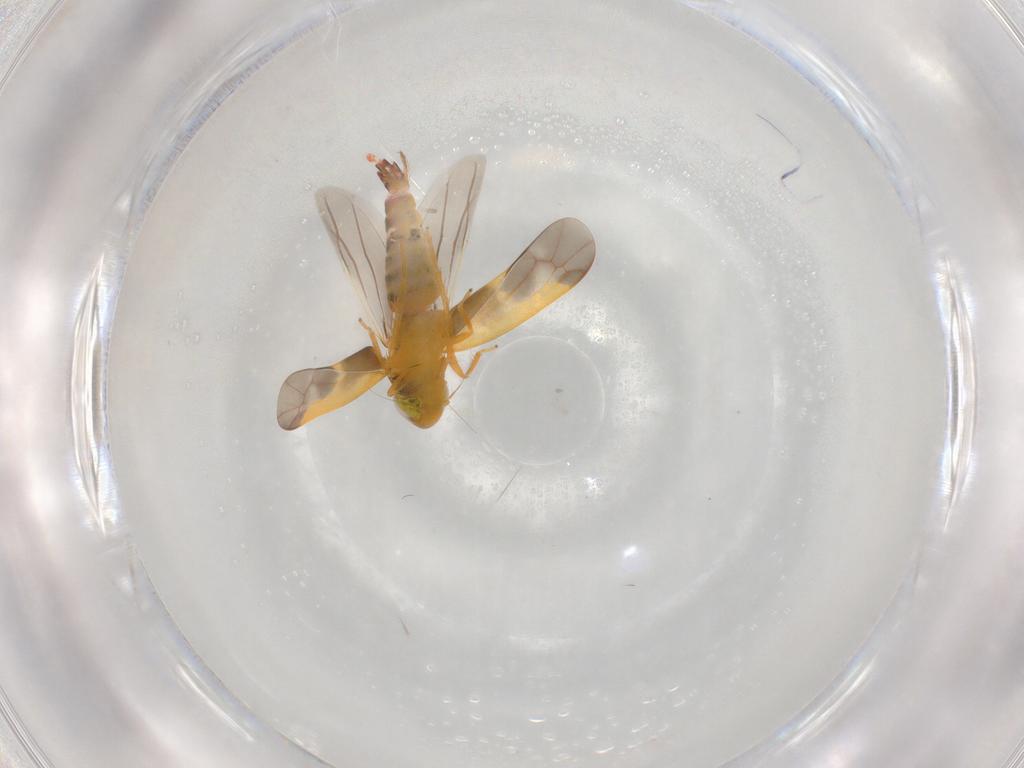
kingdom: Animalia
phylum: Arthropoda
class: Insecta
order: Hemiptera
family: Cicadellidae
